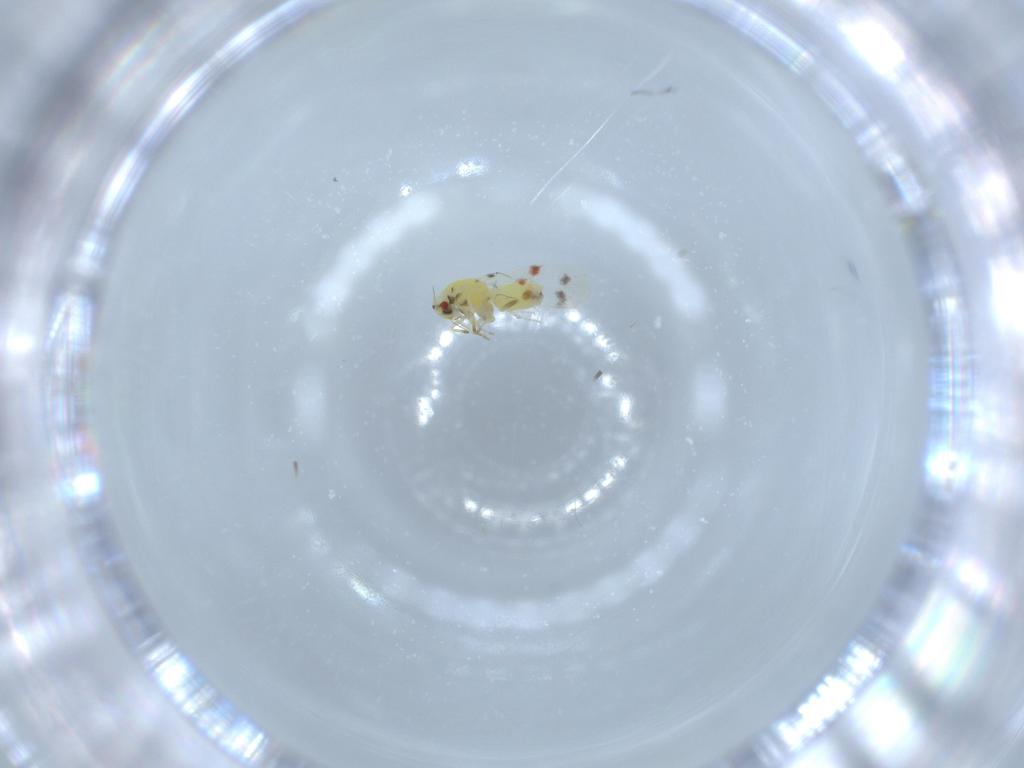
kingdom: Animalia
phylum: Arthropoda
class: Insecta
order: Hemiptera
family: Aleyrodidae
